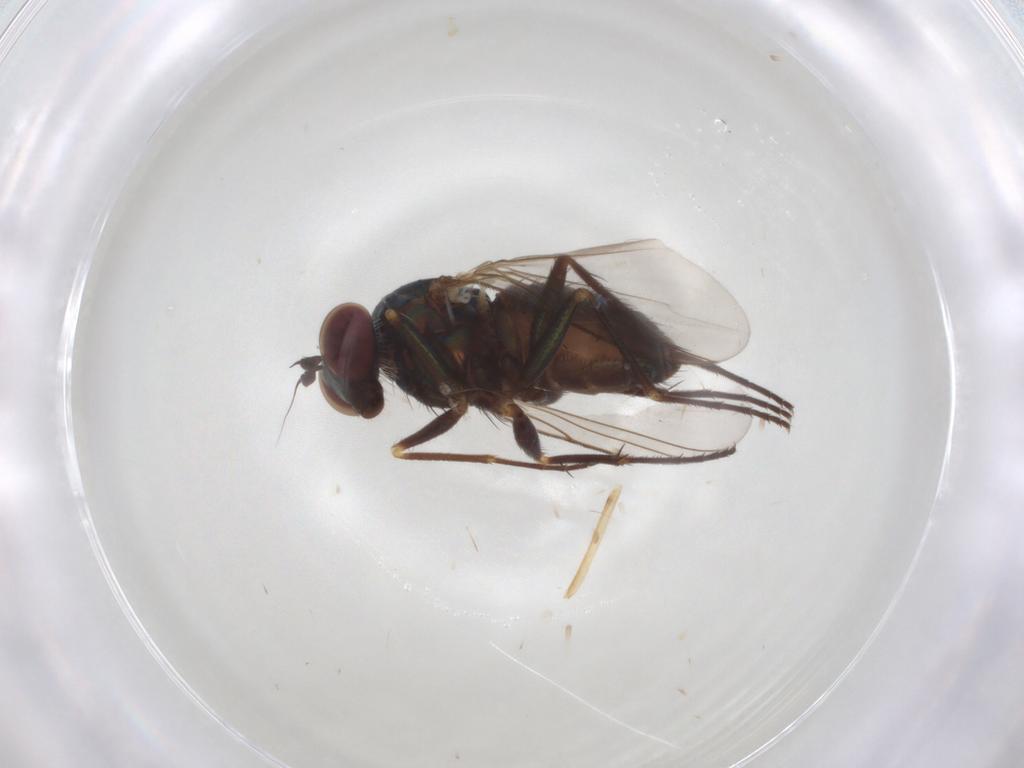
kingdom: Animalia
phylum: Arthropoda
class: Insecta
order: Diptera
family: Dolichopodidae
